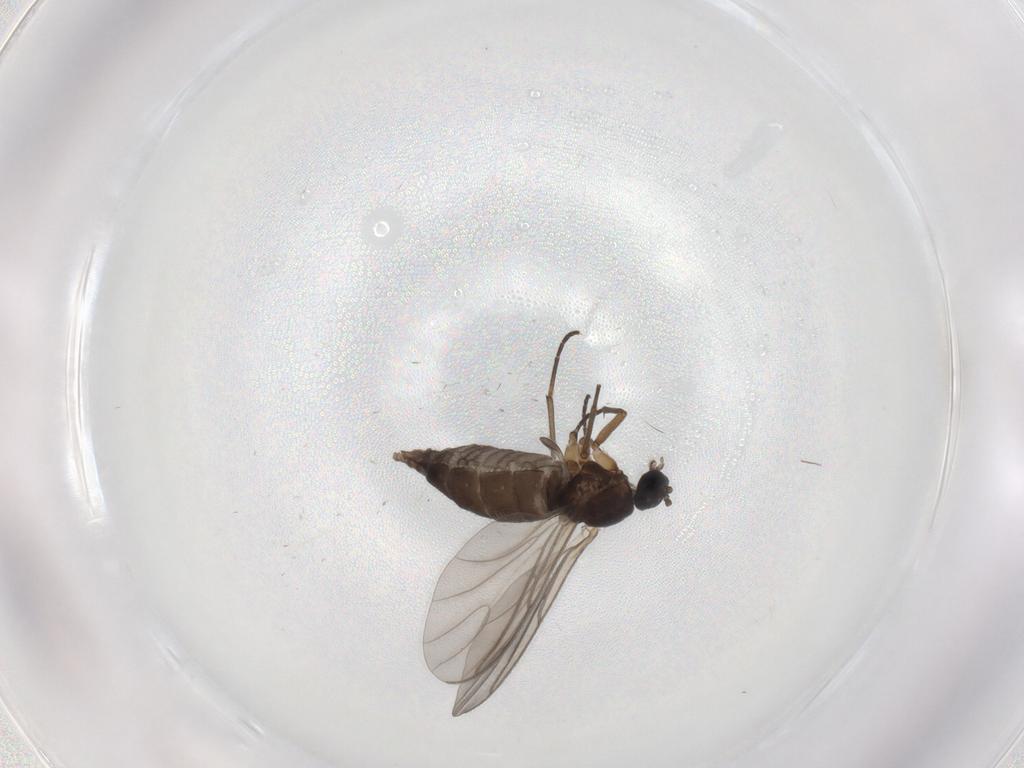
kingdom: Animalia
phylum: Arthropoda
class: Insecta
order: Diptera
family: Sciaridae
